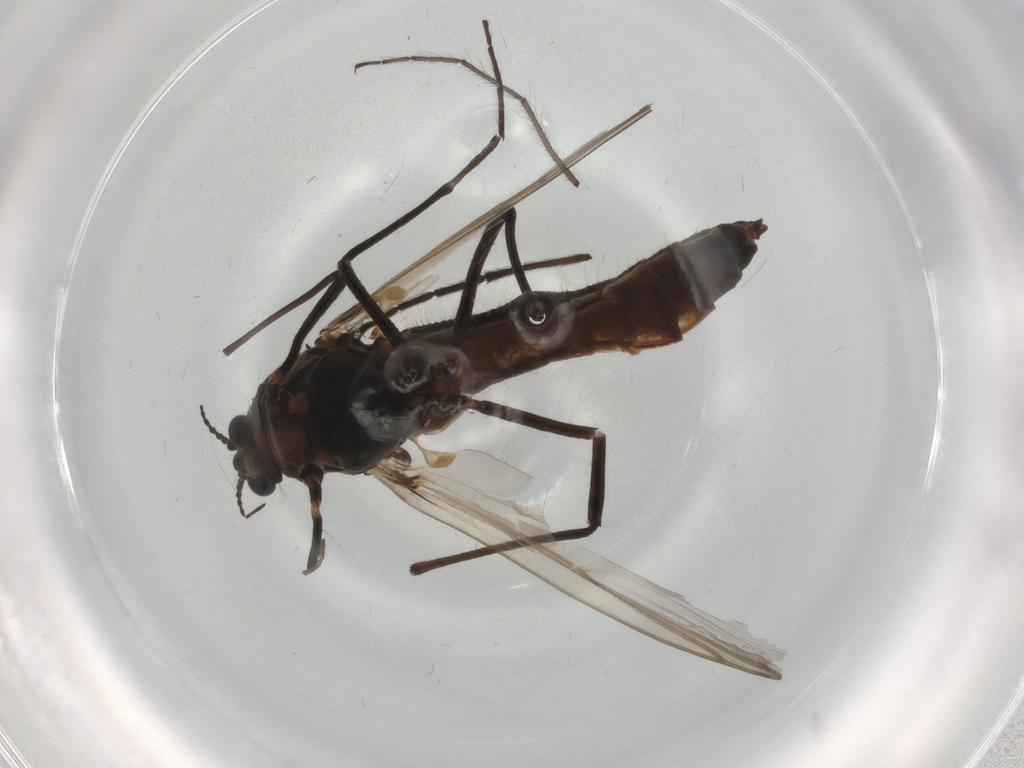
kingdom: Animalia
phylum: Arthropoda
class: Insecta
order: Diptera
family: Chironomidae
